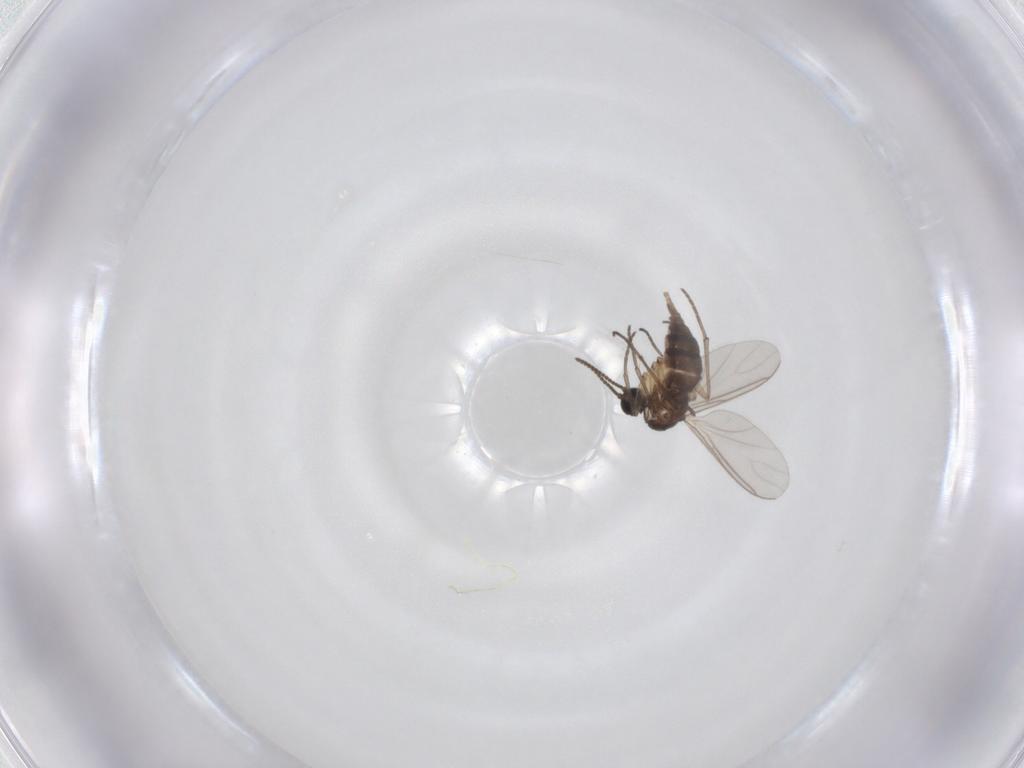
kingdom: Animalia
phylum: Arthropoda
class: Insecta
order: Diptera
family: Sciaridae
